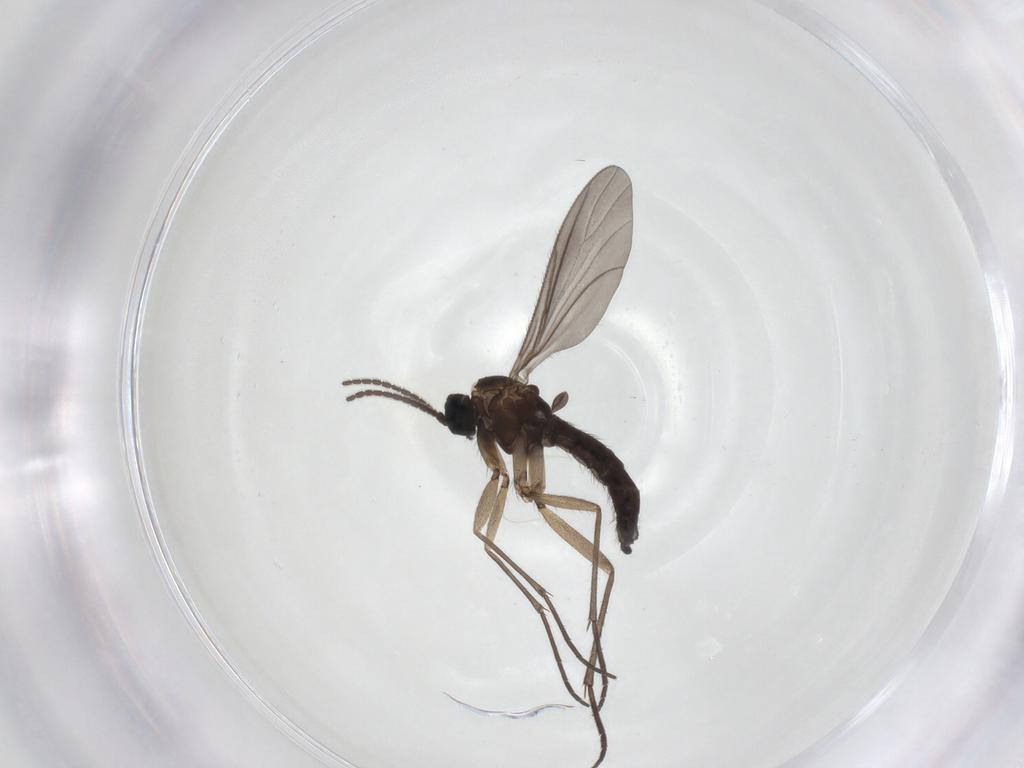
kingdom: Animalia
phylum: Arthropoda
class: Insecta
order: Diptera
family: Sciaridae
